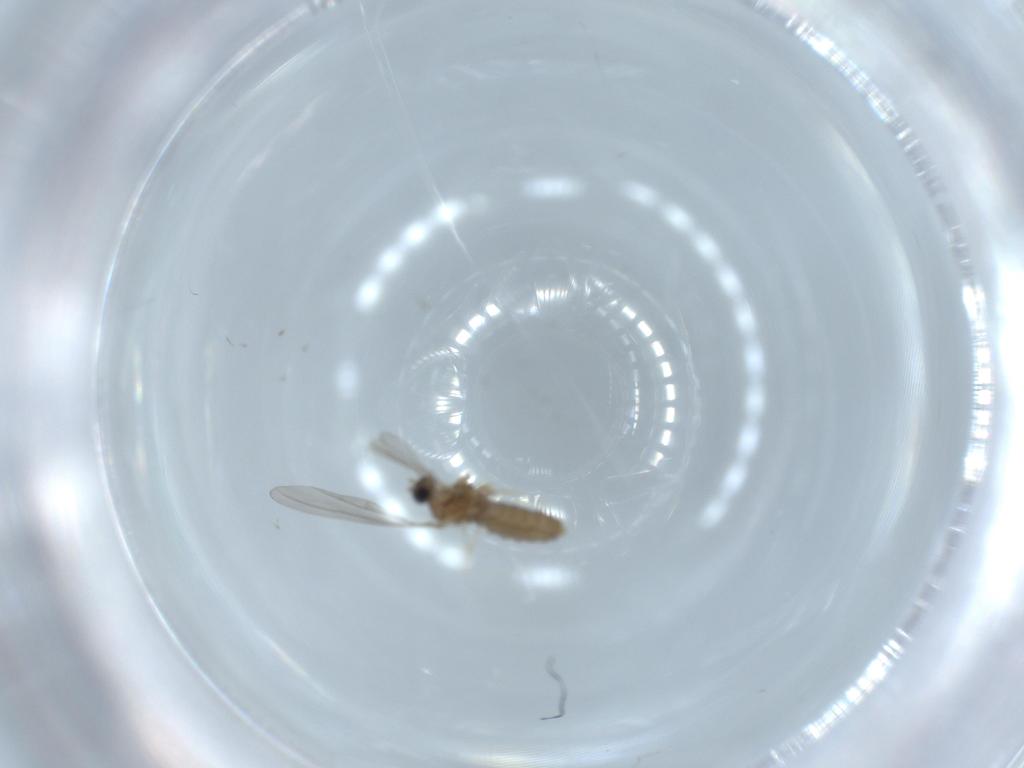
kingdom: Animalia
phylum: Arthropoda
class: Insecta
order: Diptera
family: Cecidomyiidae
